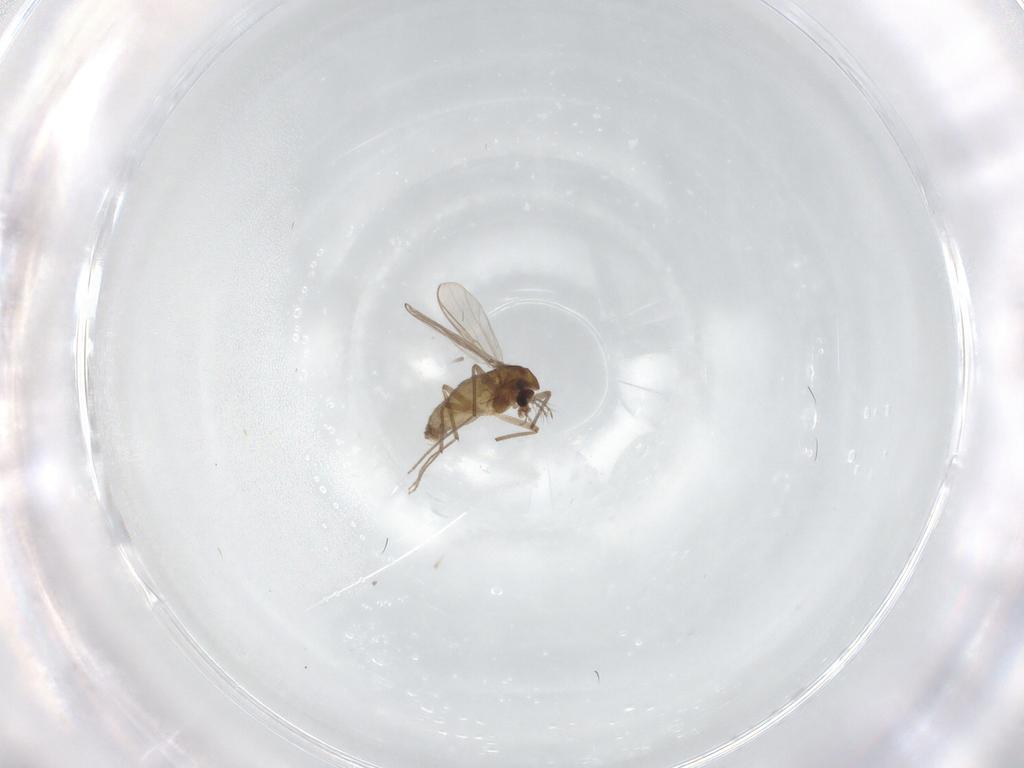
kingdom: Animalia
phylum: Arthropoda
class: Insecta
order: Diptera
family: Chironomidae
